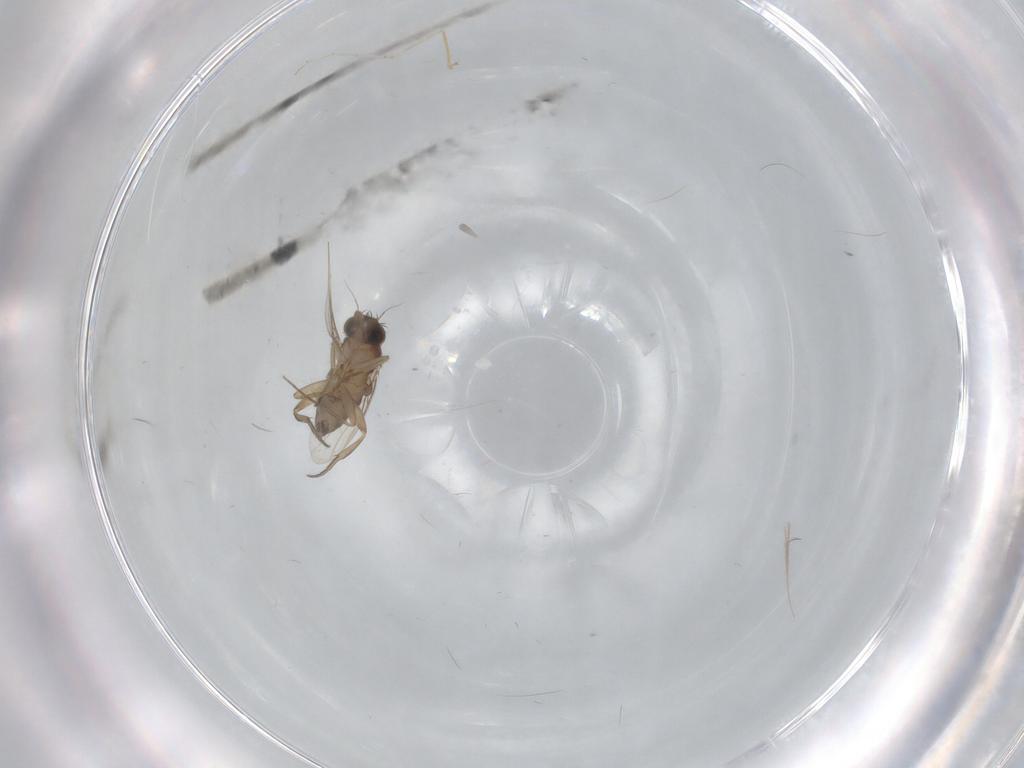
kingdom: Animalia
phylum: Arthropoda
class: Insecta
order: Diptera
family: Phoridae
